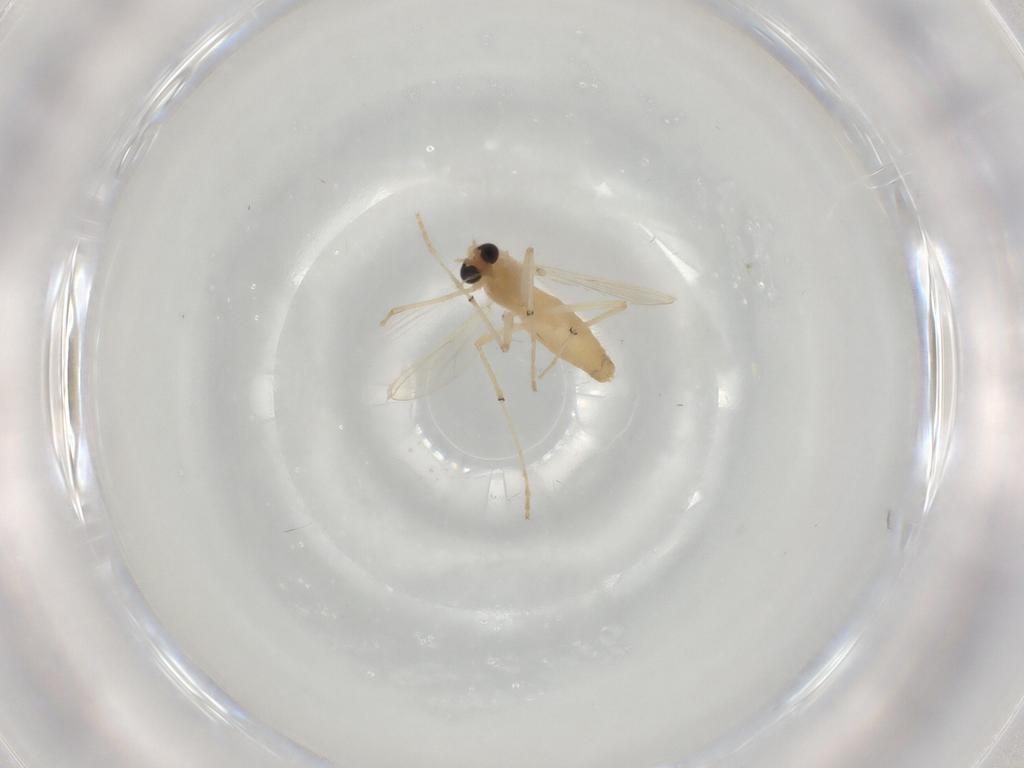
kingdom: Animalia
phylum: Arthropoda
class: Insecta
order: Diptera
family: Chironomidae
